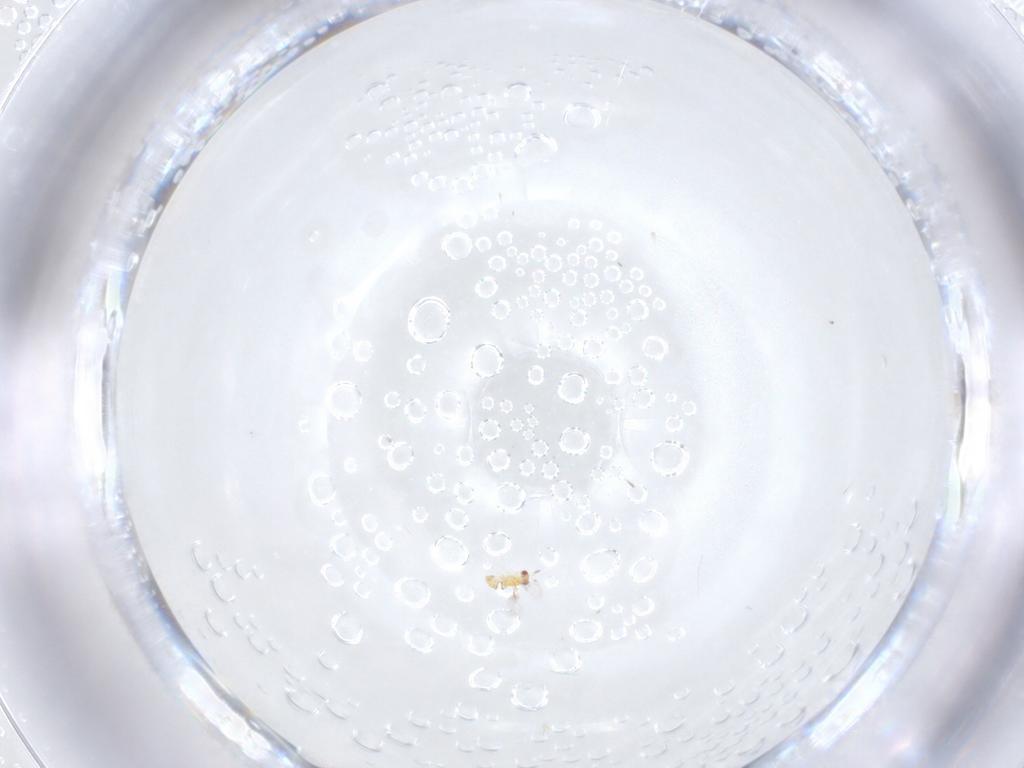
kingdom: Animalia
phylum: Arthropoda
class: Insecta
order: Hymenoptera
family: Trichogrammatidae
